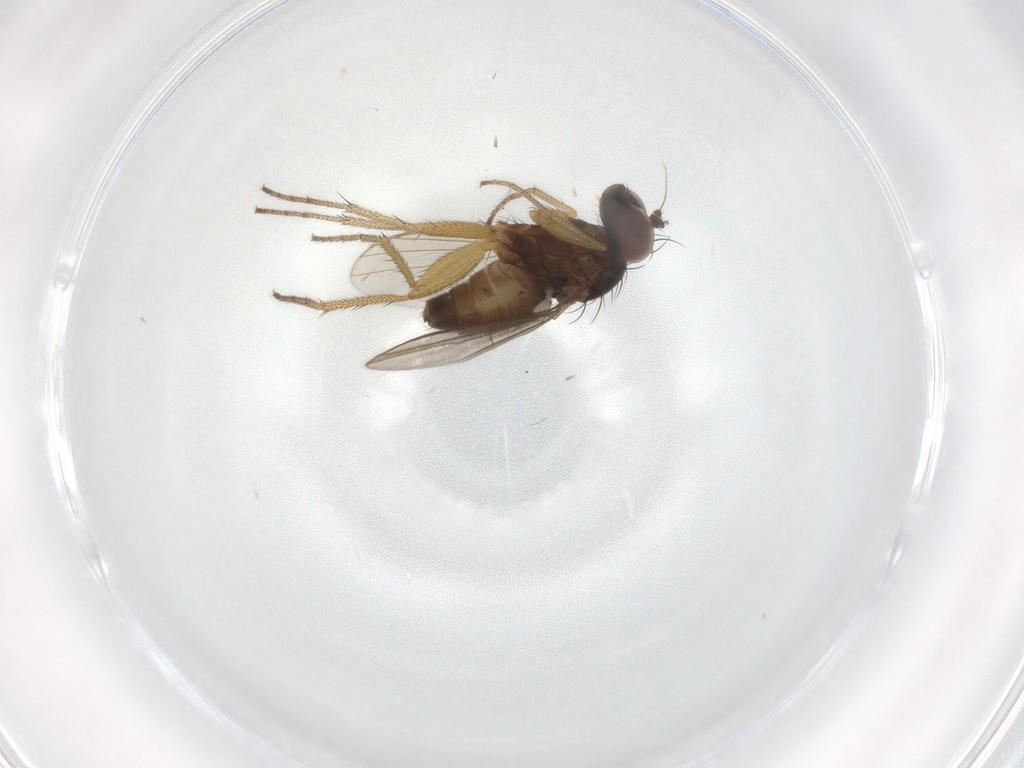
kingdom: Animalia
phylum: Arthropoda
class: Insecta
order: Diptera
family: Dolichopodidae
